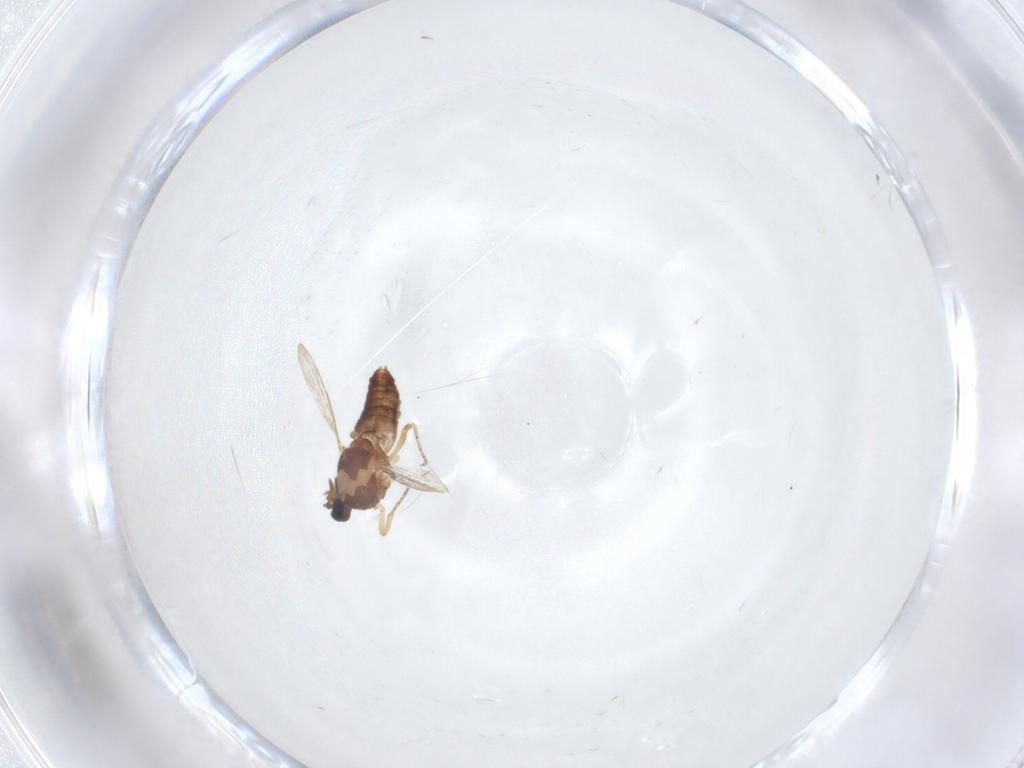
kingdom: Animalia
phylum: Arthropoda
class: Insecta
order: Diptera
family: Ceratopogonidae
